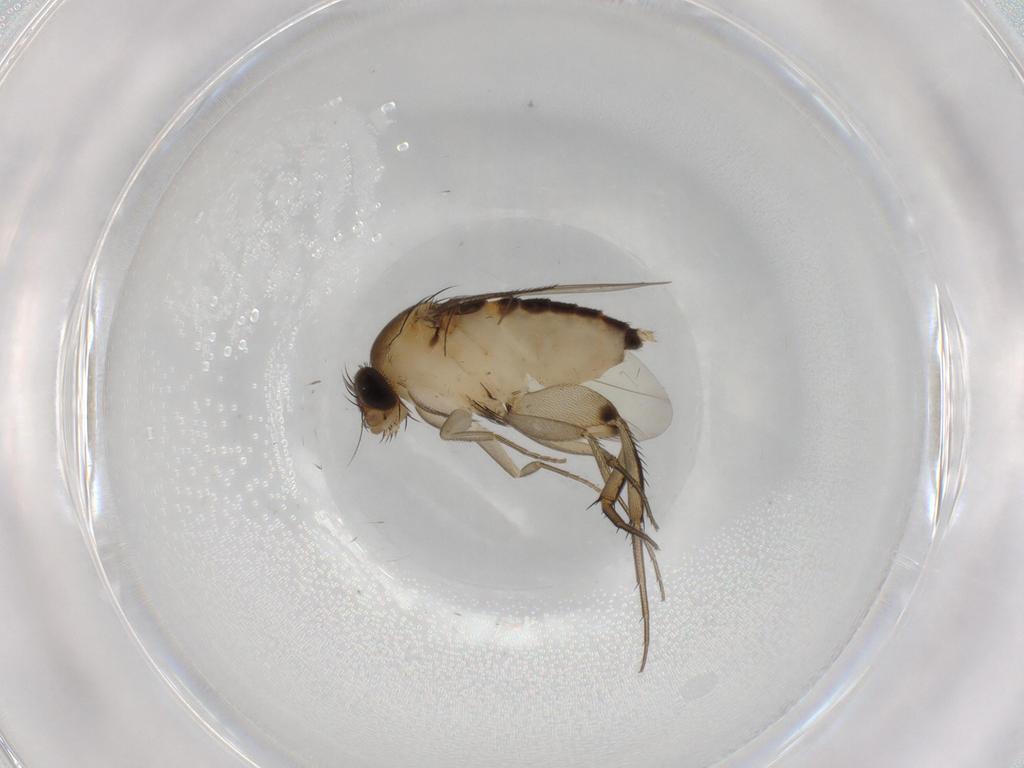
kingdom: Animalia
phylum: Arthropoda
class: Insecta
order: Diptera
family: Phoridae
